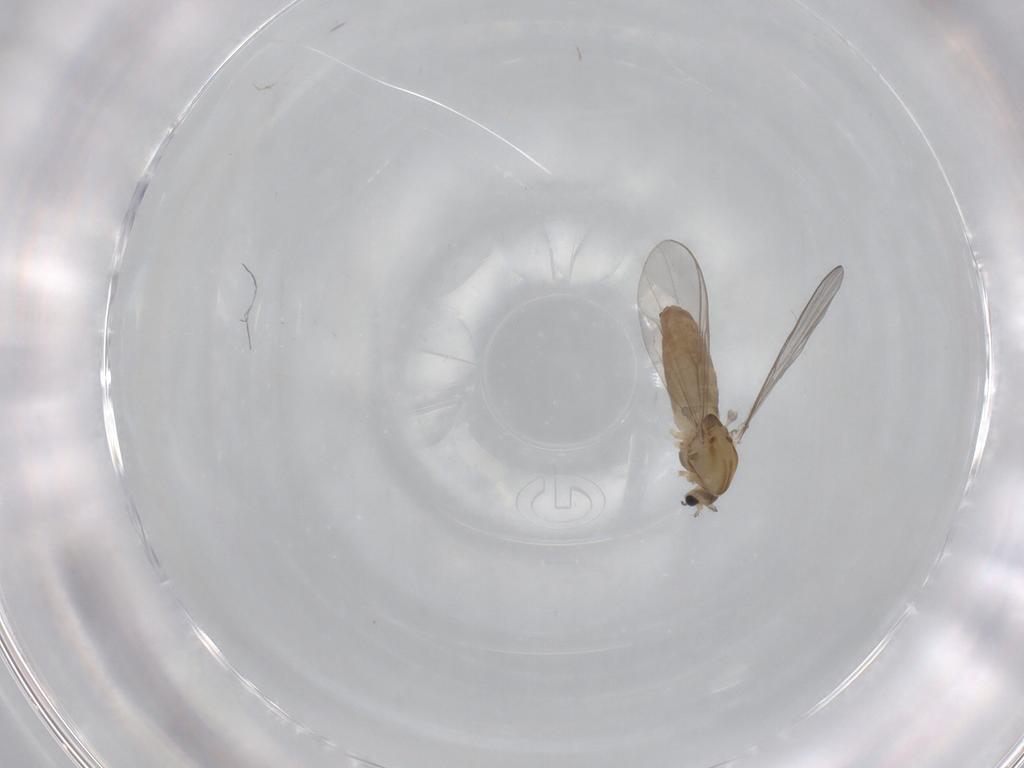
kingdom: Animalia
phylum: Arthropoda
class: Insecta
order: Diptera
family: Chironomidae
